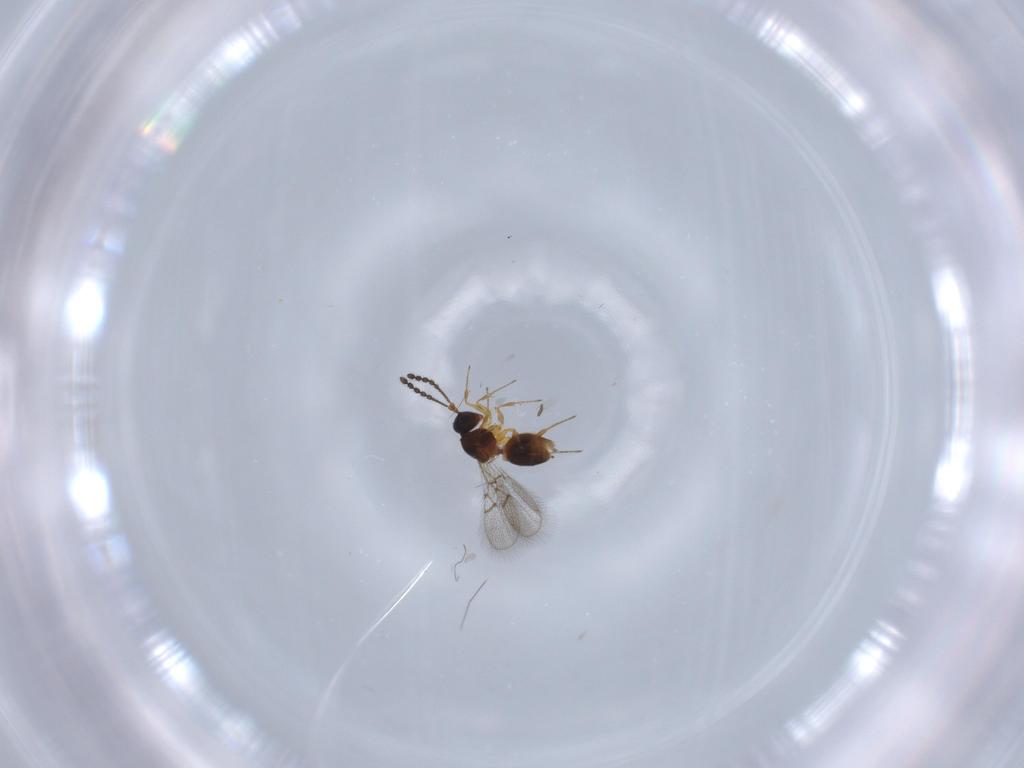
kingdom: Animalia
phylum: Arthropoda
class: Insecta
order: Hymenoptera
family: Figitidae
